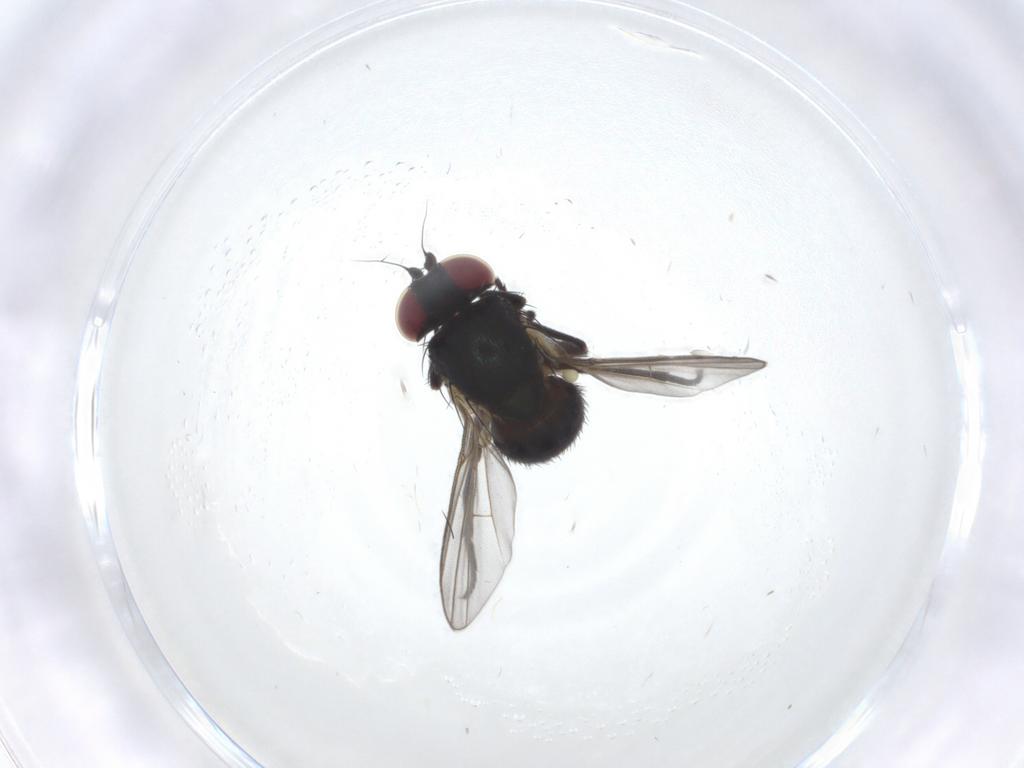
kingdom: Animalia
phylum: Arthropoda
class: Insecta
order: Diptera
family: Agromyzidae
